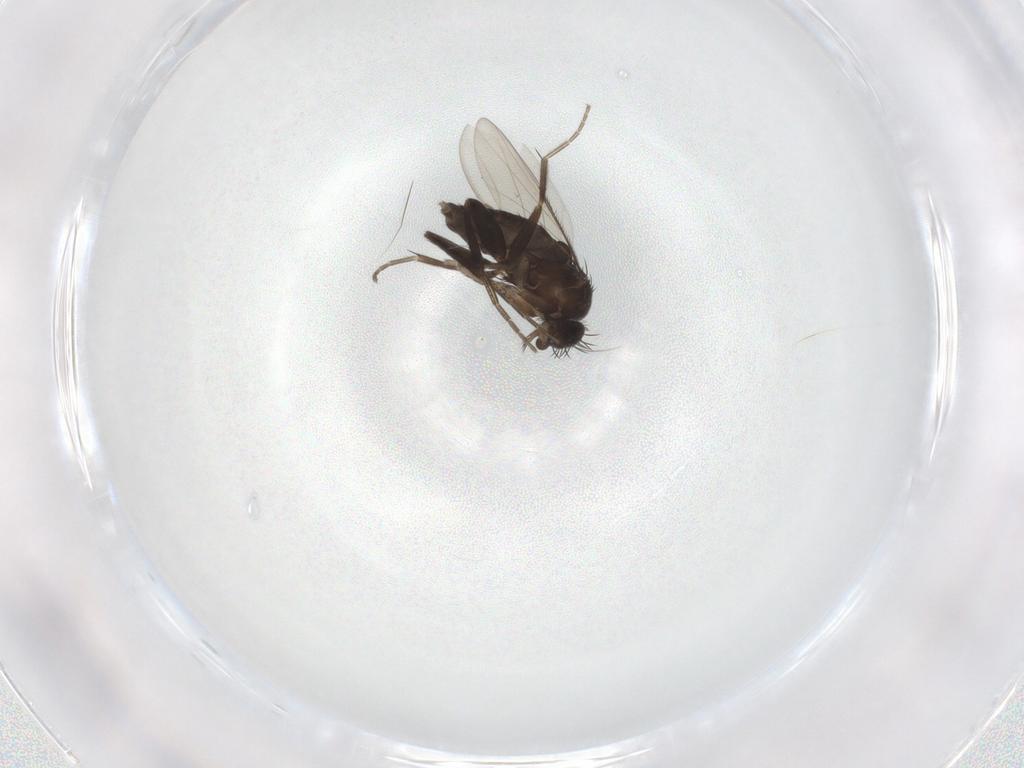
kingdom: Animalia
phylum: Arthropoda
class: Insecta
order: Diptera
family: Phoridae
